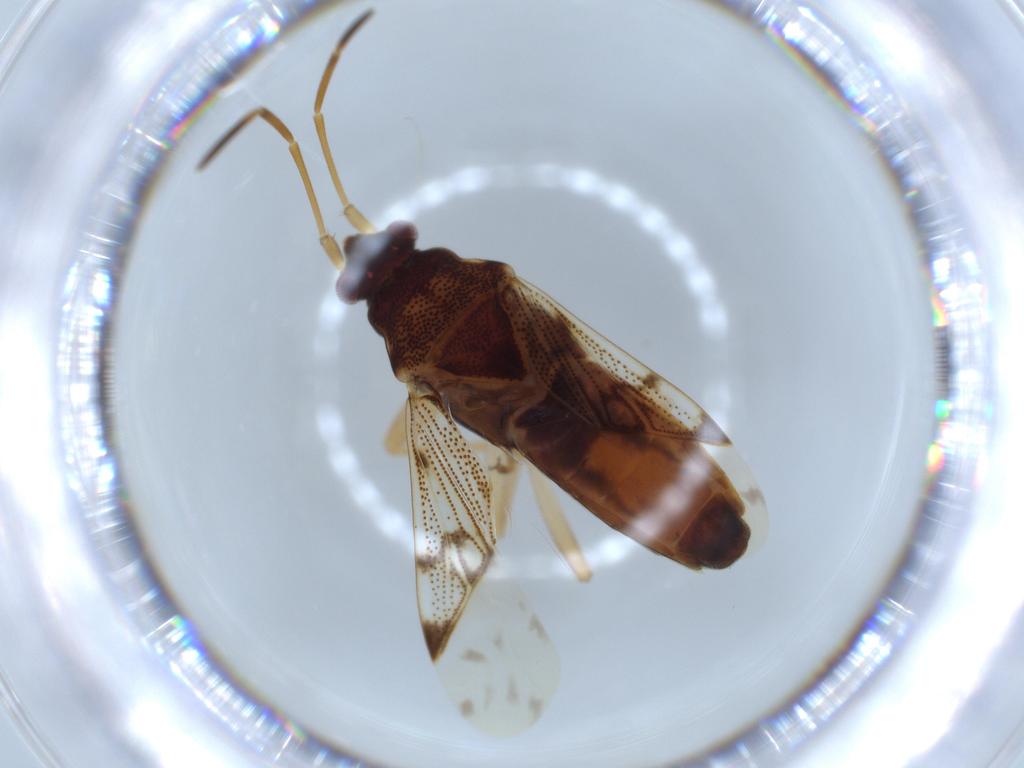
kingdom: Animalia
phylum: Arthropoda
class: Insecta
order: Hemiptera
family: Rhyparochromidae
